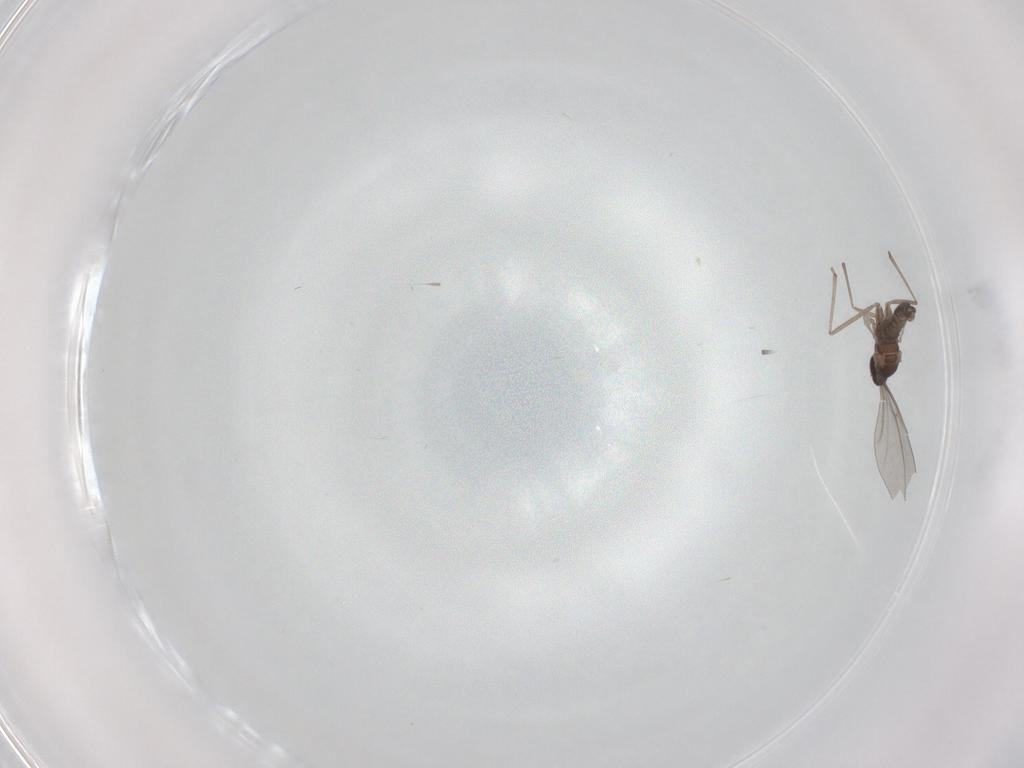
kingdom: Animalia
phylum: Arthropoda
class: Insecta
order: Diptera
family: Cecidomyiidae
